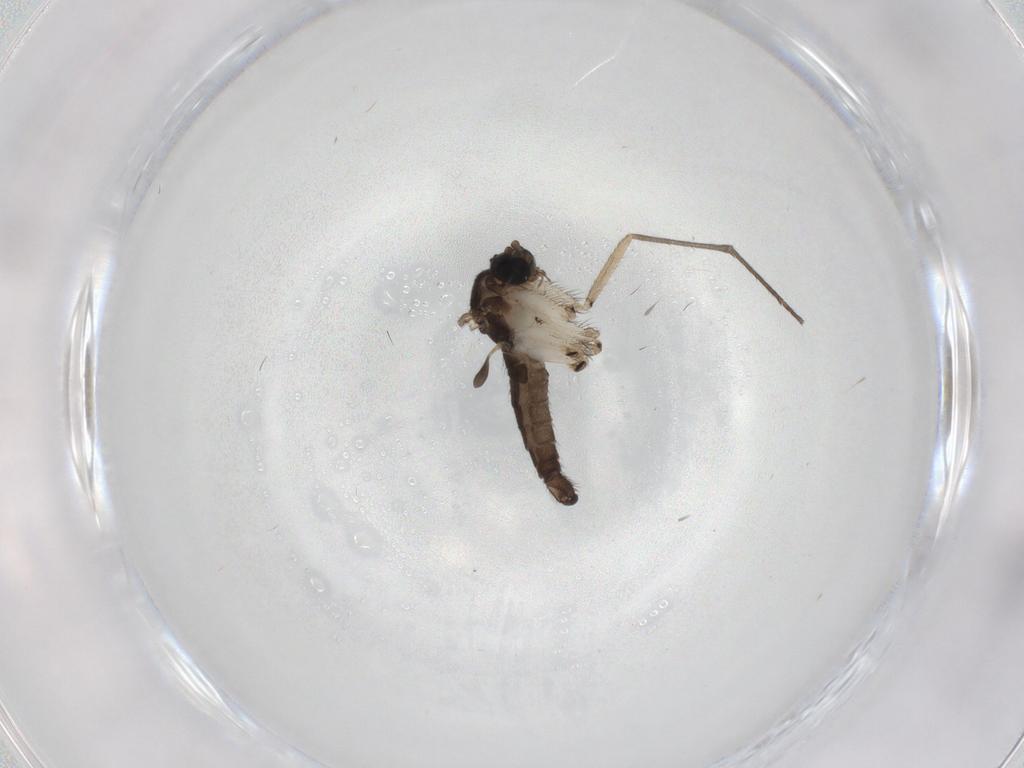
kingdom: Animalia
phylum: Arthropoda
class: Insecta
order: Diptera
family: Sciaridae
